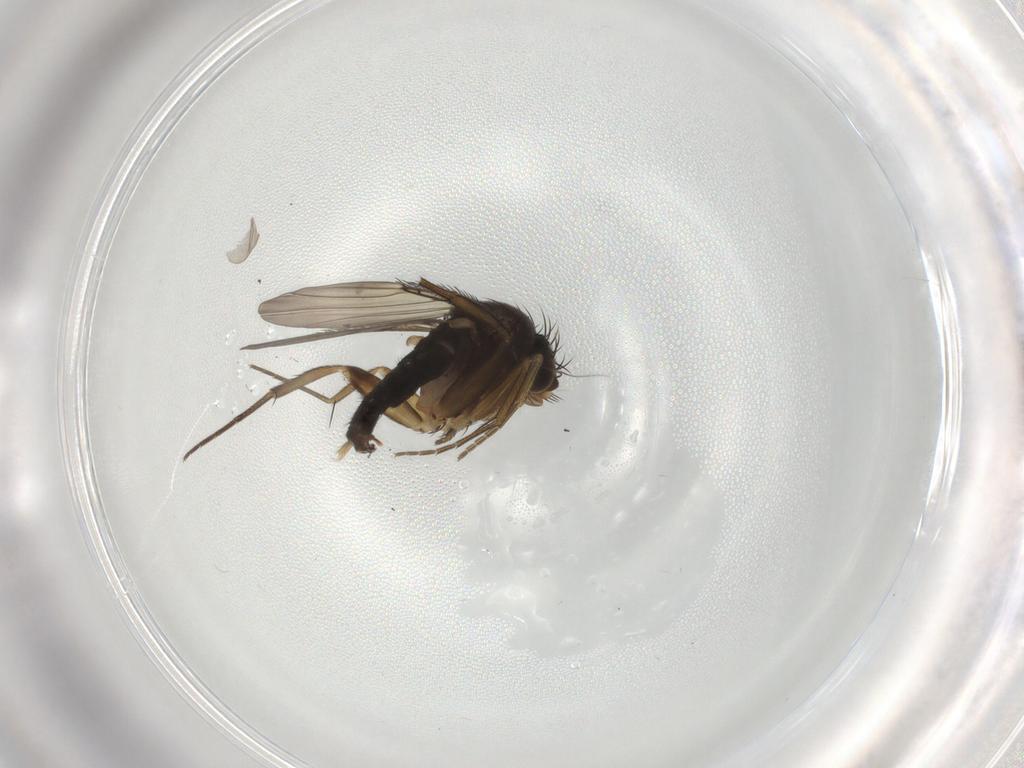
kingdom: Animalia
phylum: Arthropoda
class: Insecta
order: Diptera
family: Phoridae
